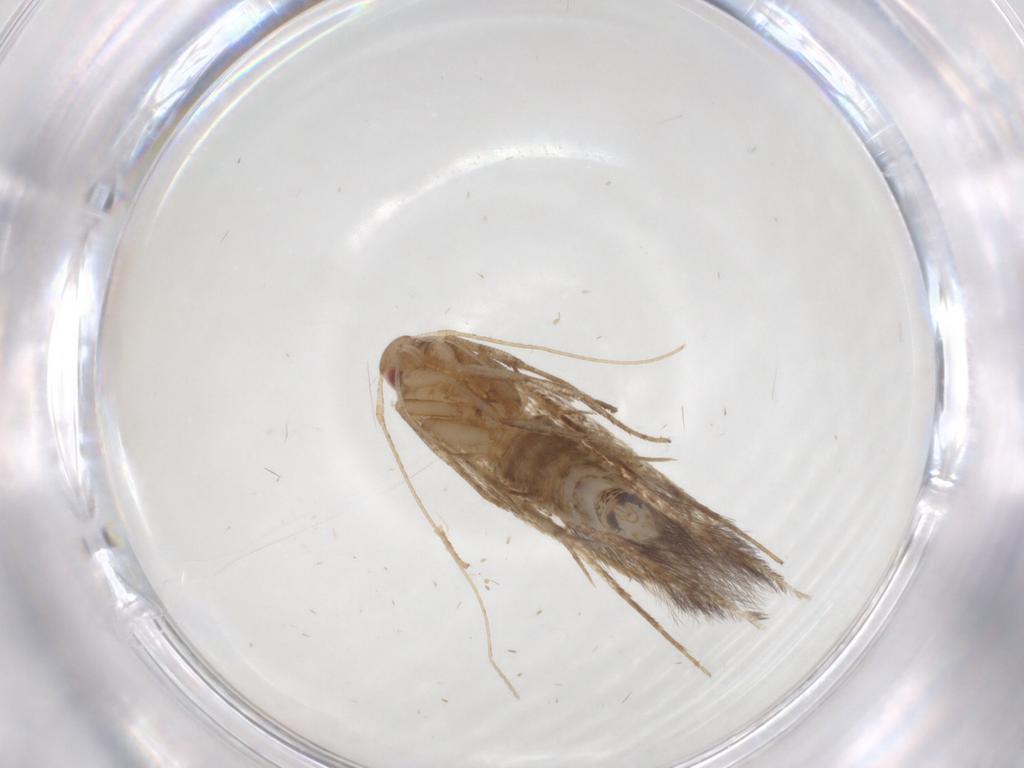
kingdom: Animalia
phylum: Arthropoda
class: Insecta
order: Lepidoptera
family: Cosmopterigidae
